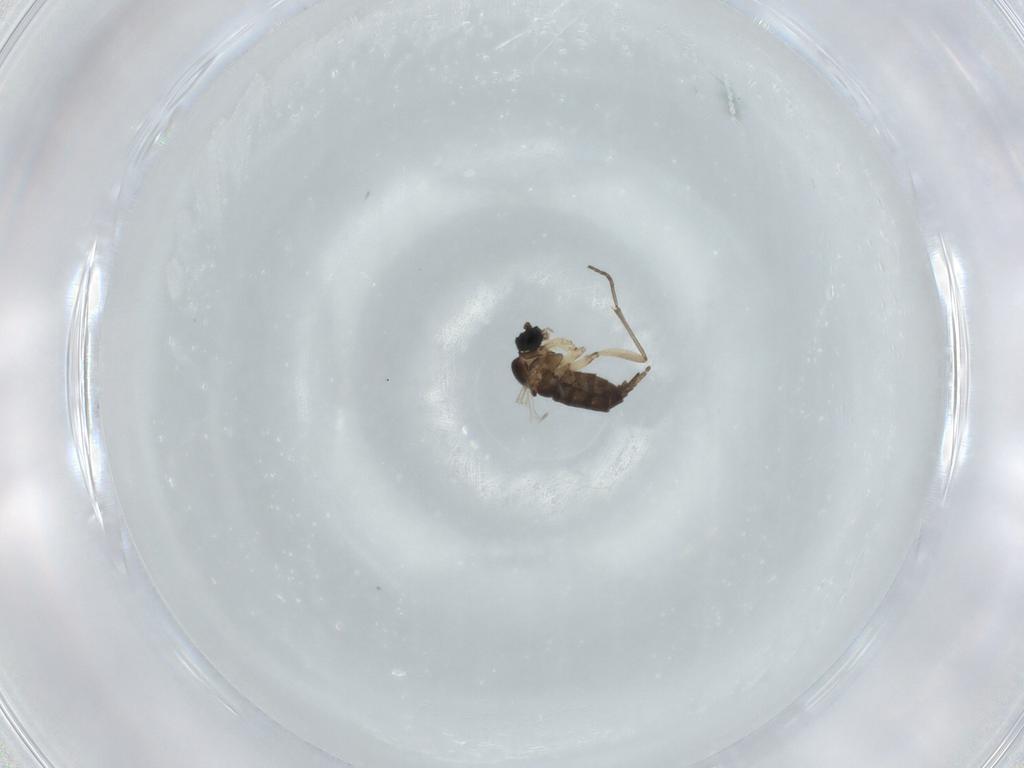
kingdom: Animalia
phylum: Arthropoda
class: Insecta
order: Diptera
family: Sciaridae
